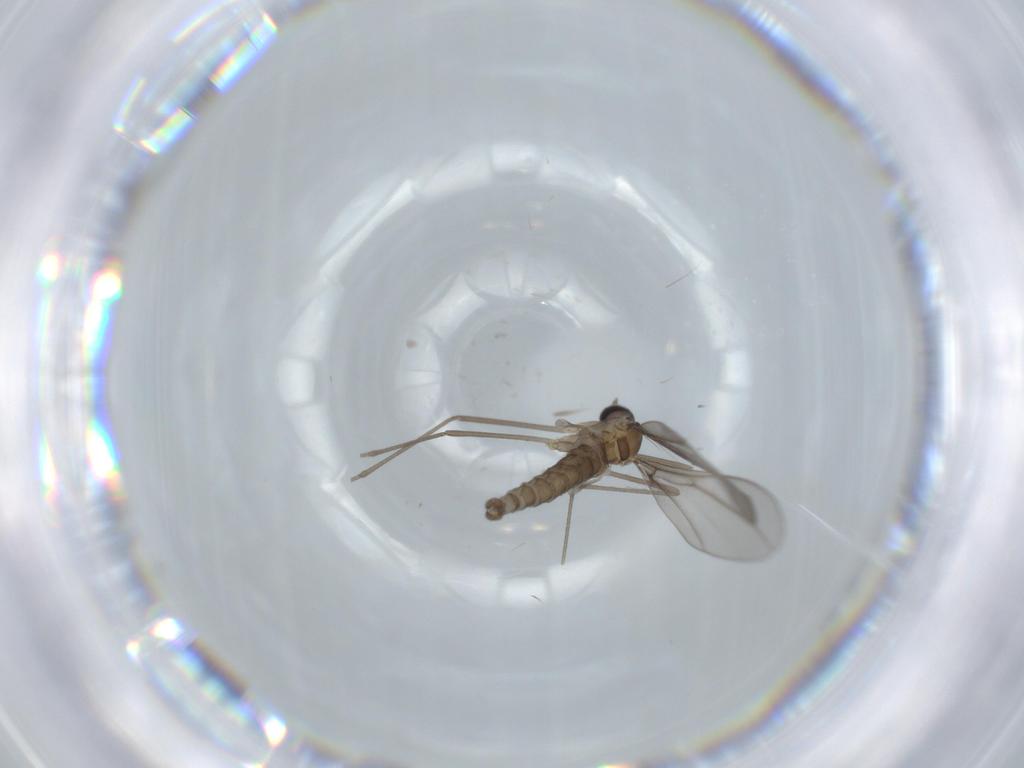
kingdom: Animalia
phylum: Arthropoda
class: Insecta
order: Diptera
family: Cecidomyiidae
